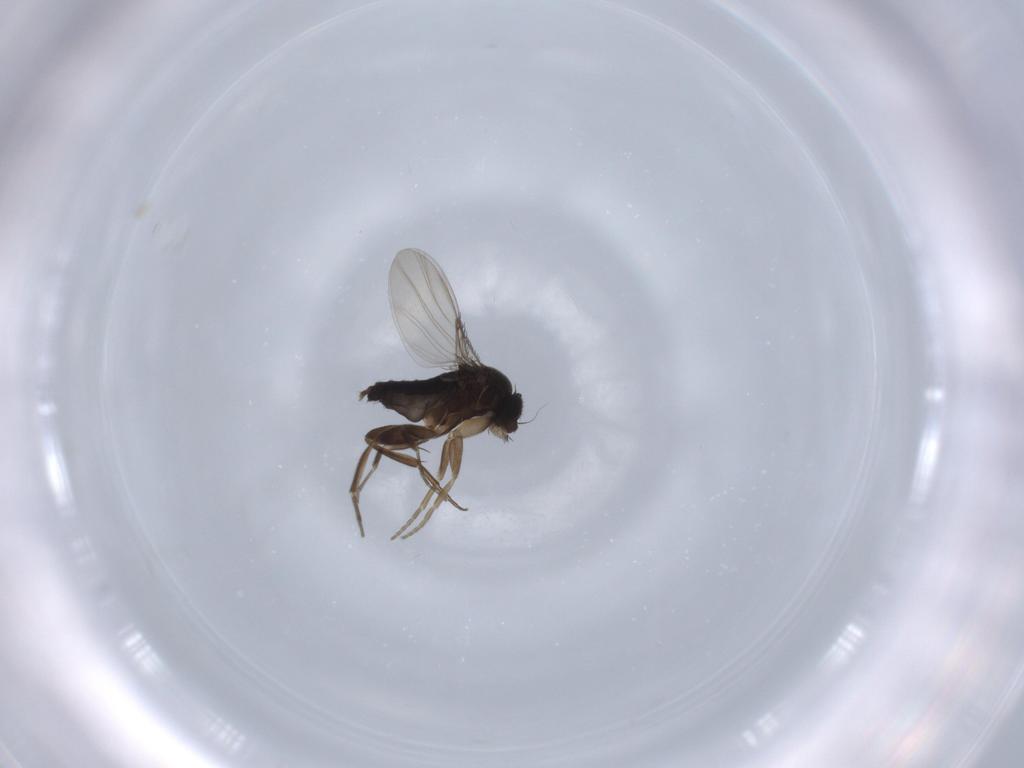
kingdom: Animalia
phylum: Arthropoda
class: Insecta
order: Diptera
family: Phoridae
